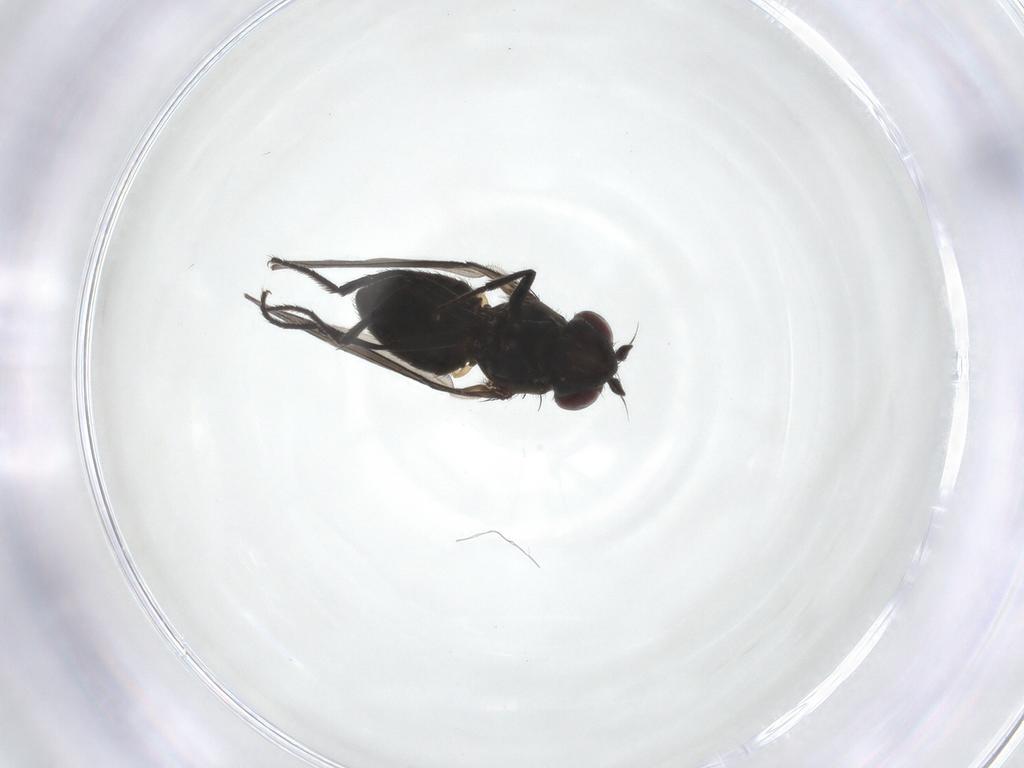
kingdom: Animalia
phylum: Arthropoda
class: Insecta
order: Diptera
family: Ephydridae
